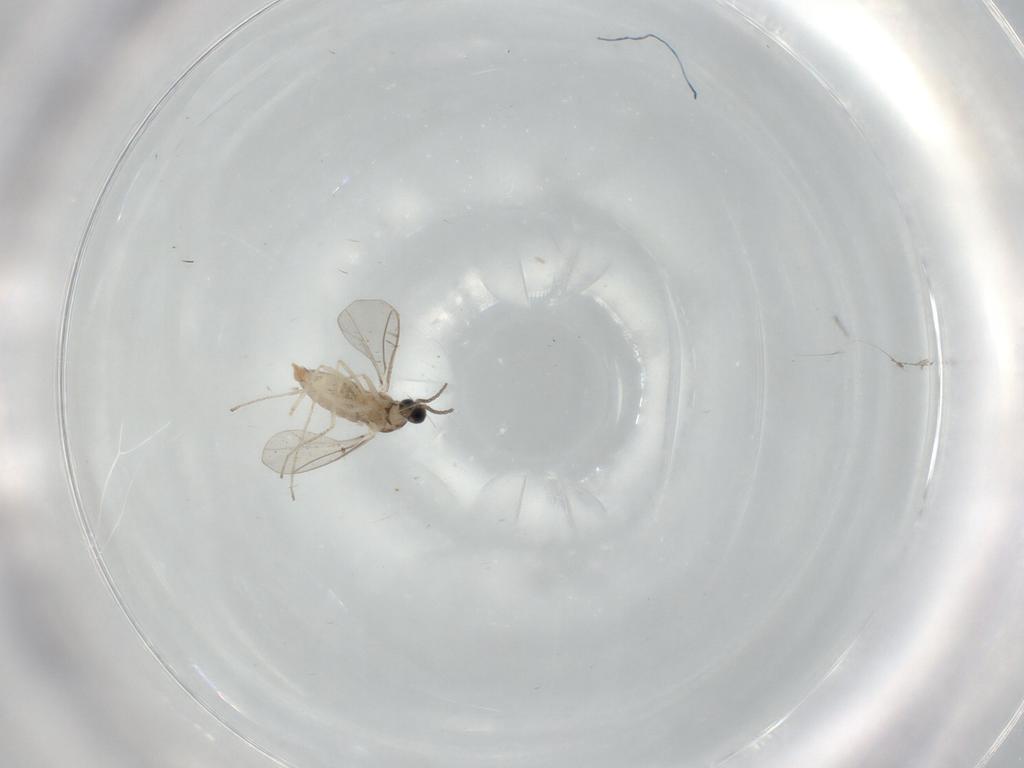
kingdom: Animalia
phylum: Arthropoda
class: Insecta
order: Diptera
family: Cecidomyiidae
